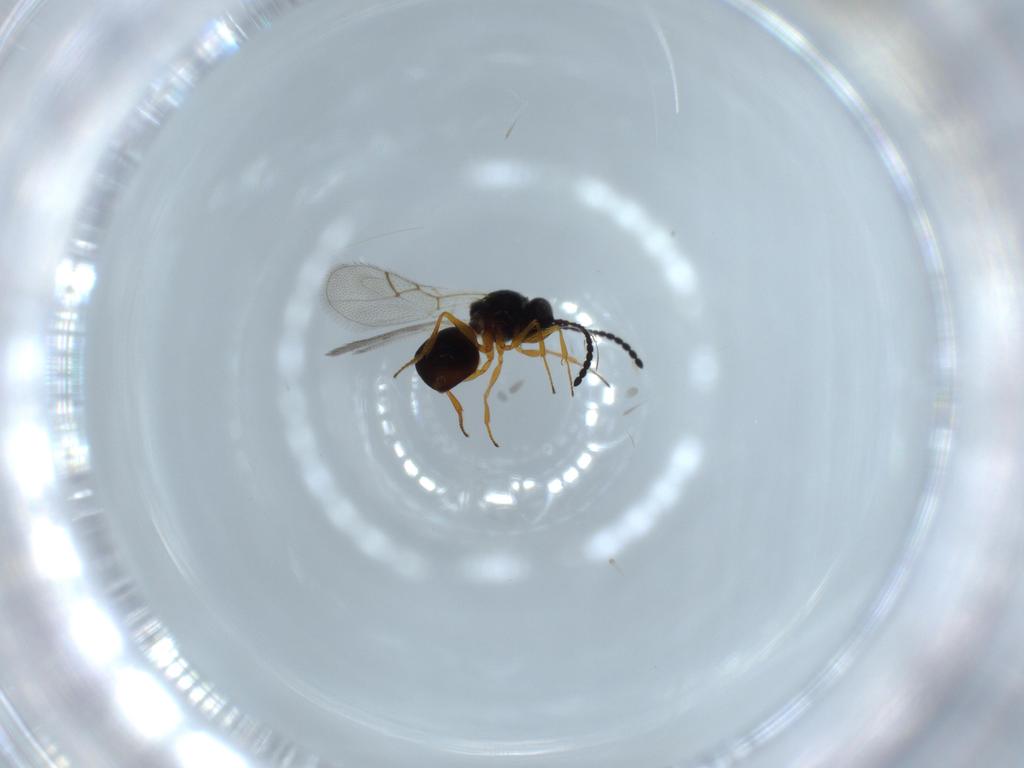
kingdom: Animalia
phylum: Arthropoda
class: Insecta
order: Hymenoptera
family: Figitidae
